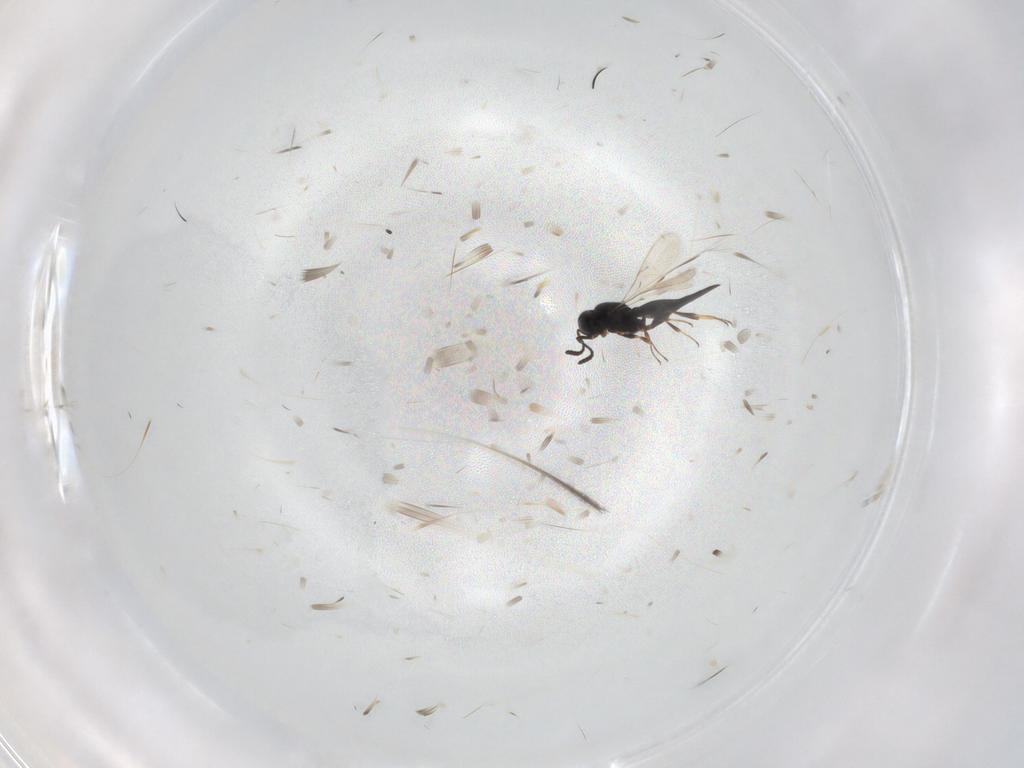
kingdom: Animalia
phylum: Arthropoda
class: Insecta
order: Hymenoptera
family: Scelionidae
